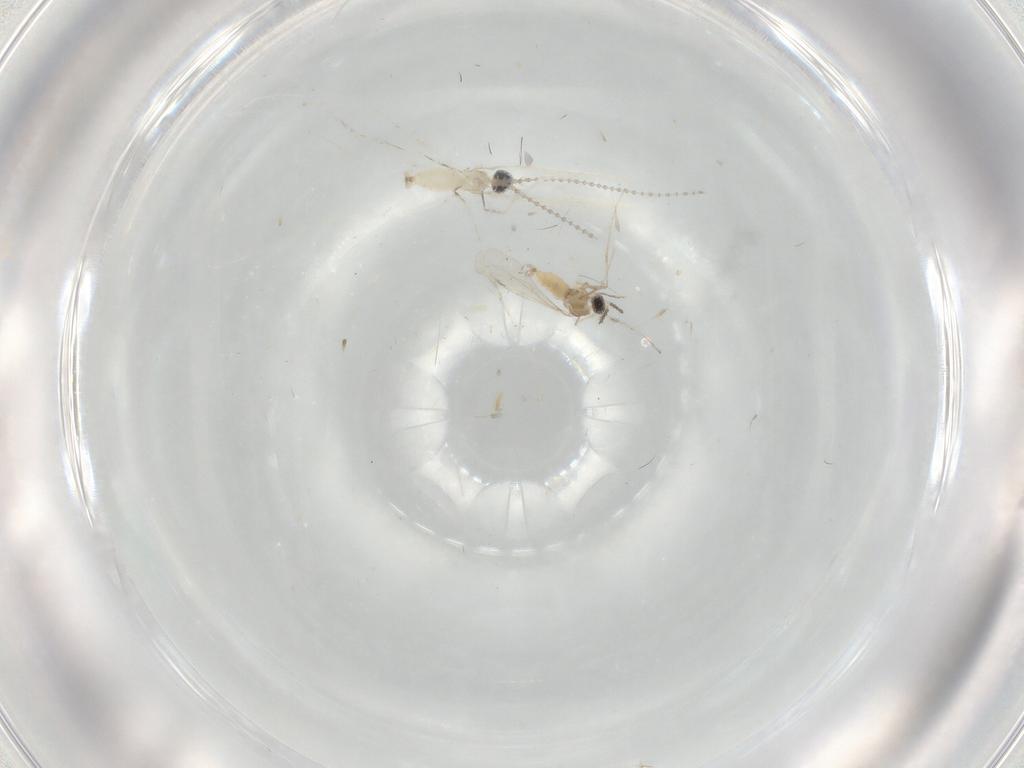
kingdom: Animalia
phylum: Arthropoda
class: Insecta
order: Diptera
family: Cecidomyiidae
